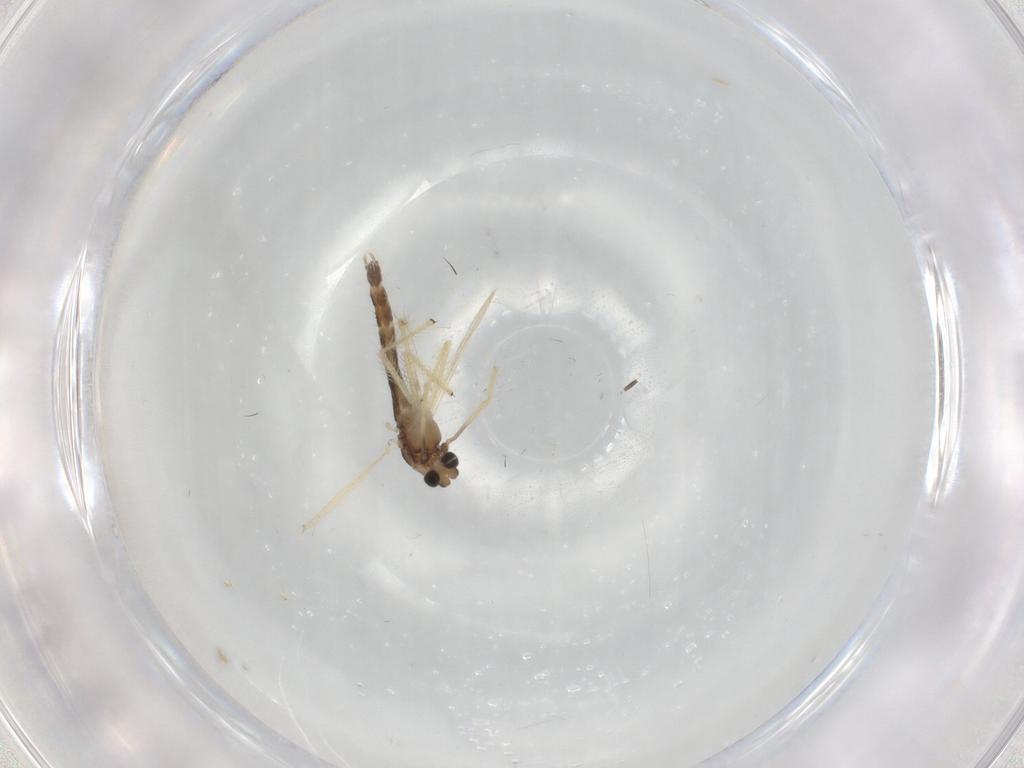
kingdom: Animalia
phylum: Arthropoda
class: Insecta
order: Diptera
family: Chironomidae
